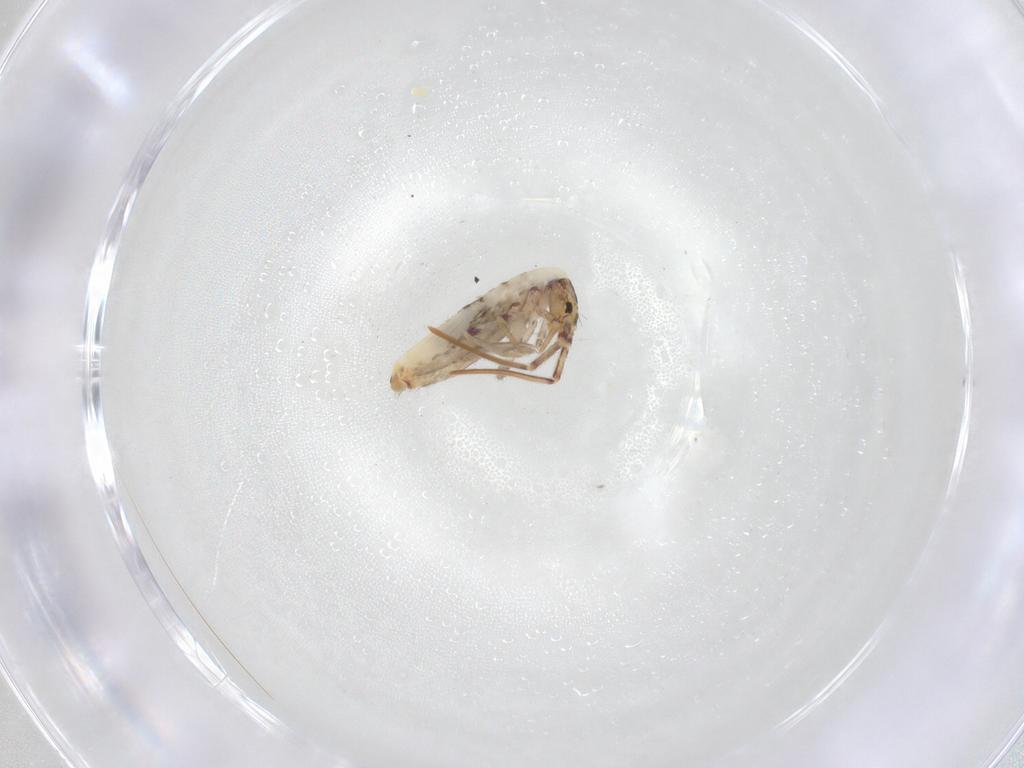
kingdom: Animalia
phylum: Arthropoda
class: Collembola
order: Entomobryomorpha
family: Entomobryidae
